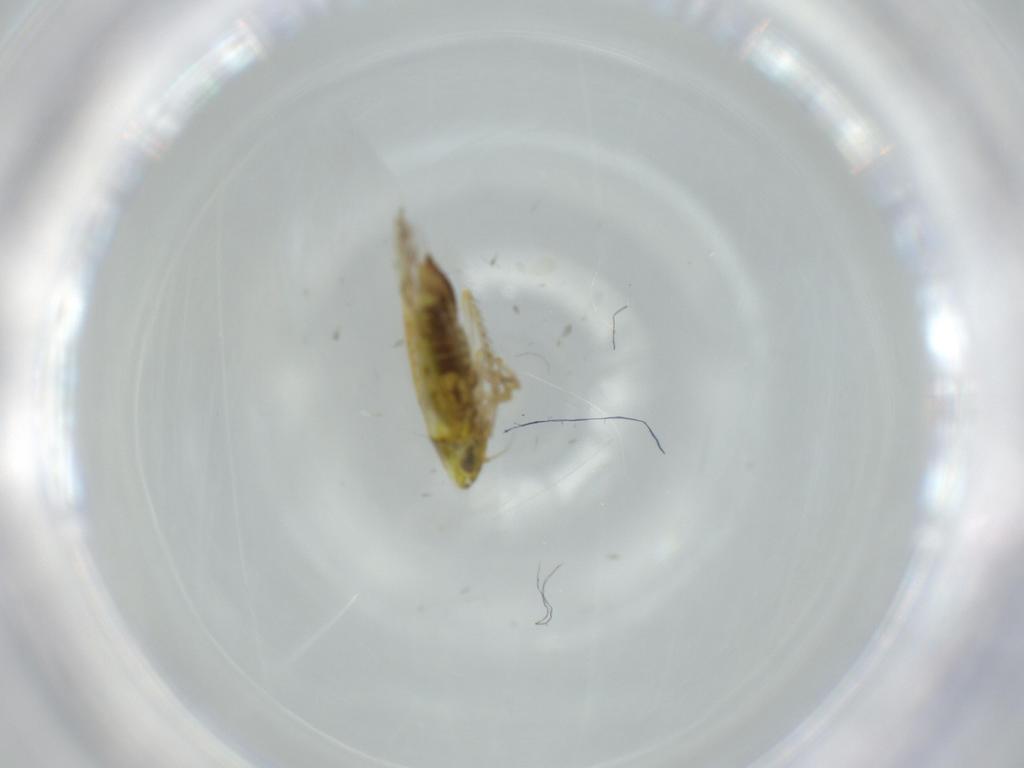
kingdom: Animalia
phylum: Arthropoda
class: Insecta
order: Hemiptera
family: Cicadellidae
